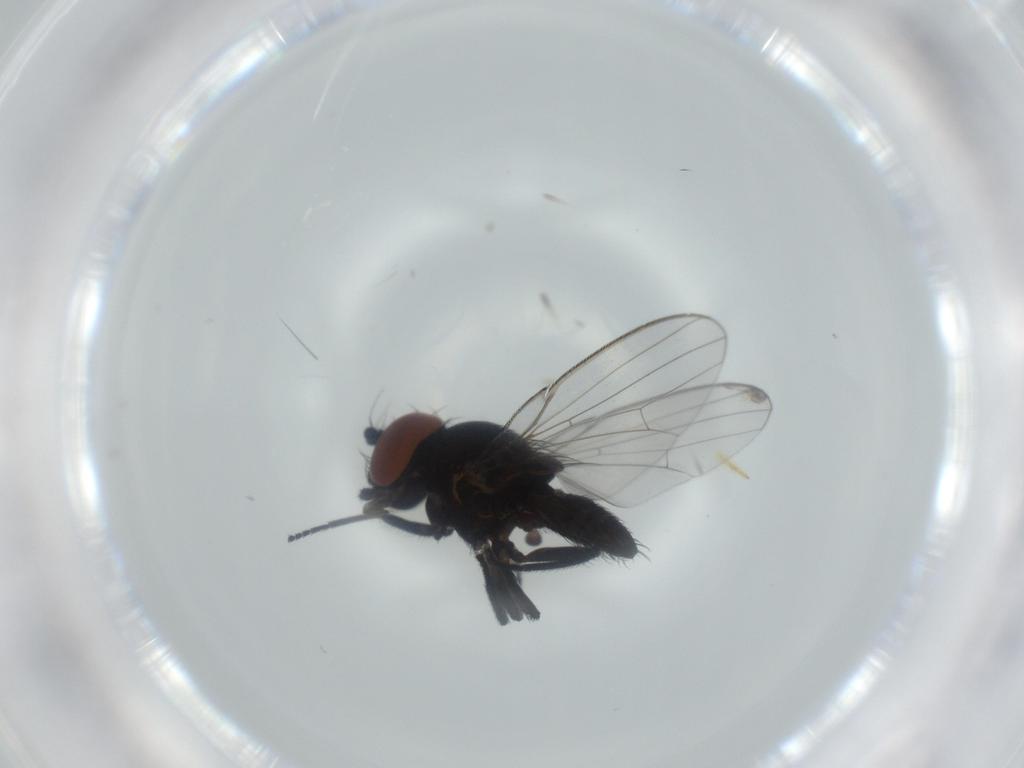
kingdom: Animalia
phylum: Arthropoda
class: Insecta
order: Diptera
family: Milichiidae
